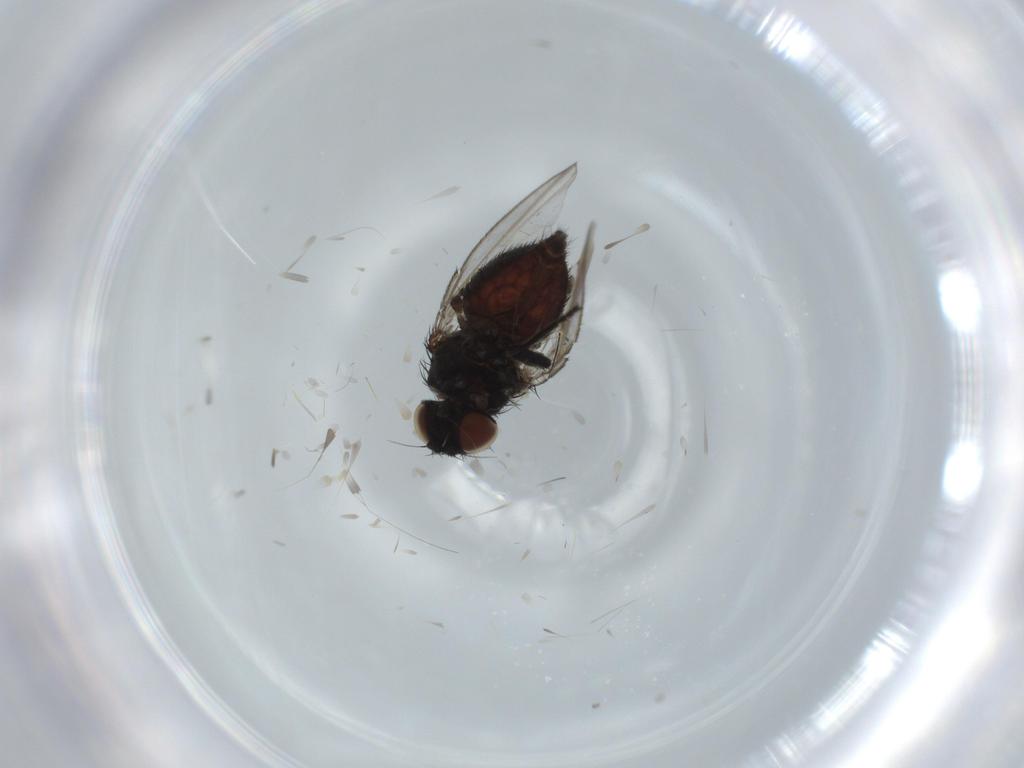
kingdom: Animalia
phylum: Arthropoda
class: Insecta
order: Diptera
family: Milichiidae
